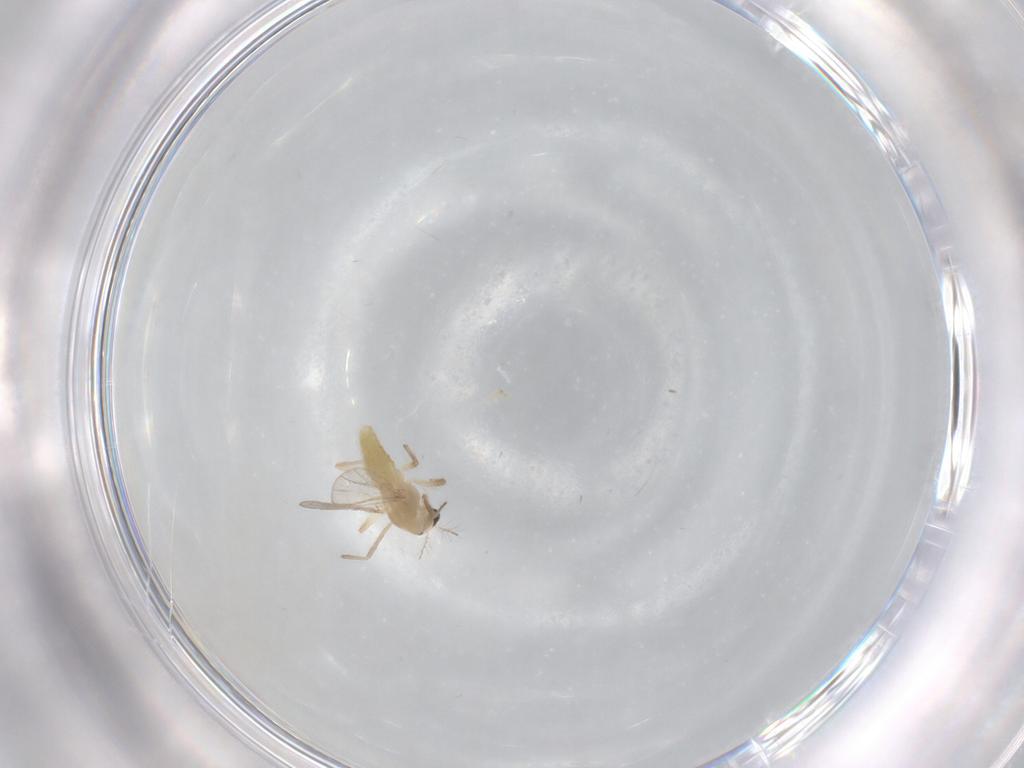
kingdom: Animalia
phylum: Arthropoda
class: Insecta
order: Diptera
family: Chironomidae
